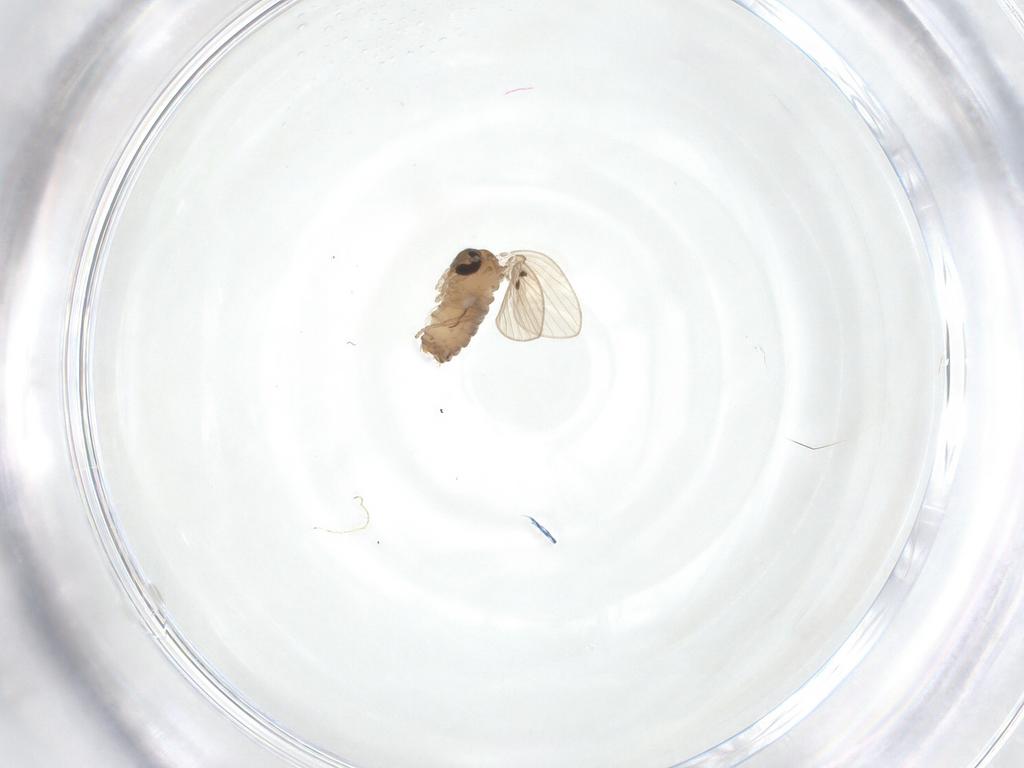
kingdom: Animalia
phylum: Arthropoda
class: Insecta
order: Diptera
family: Psychodidae
